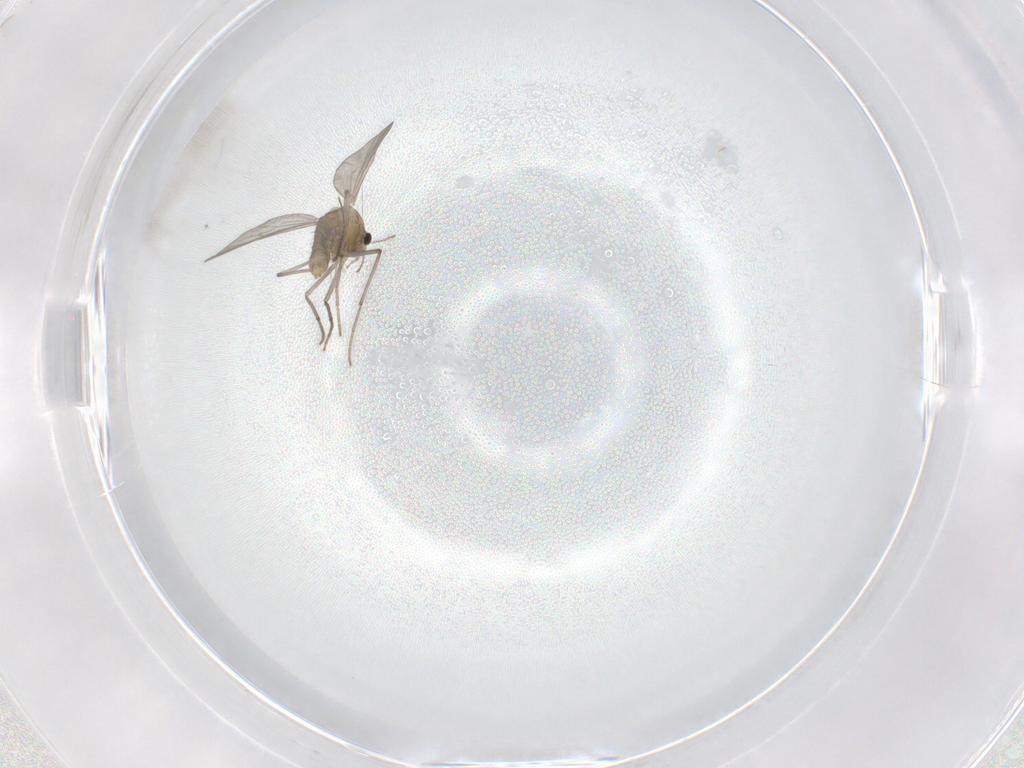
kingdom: Animalia
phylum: Arthropoda
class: Insecta
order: Diptera
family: Chironomidae
